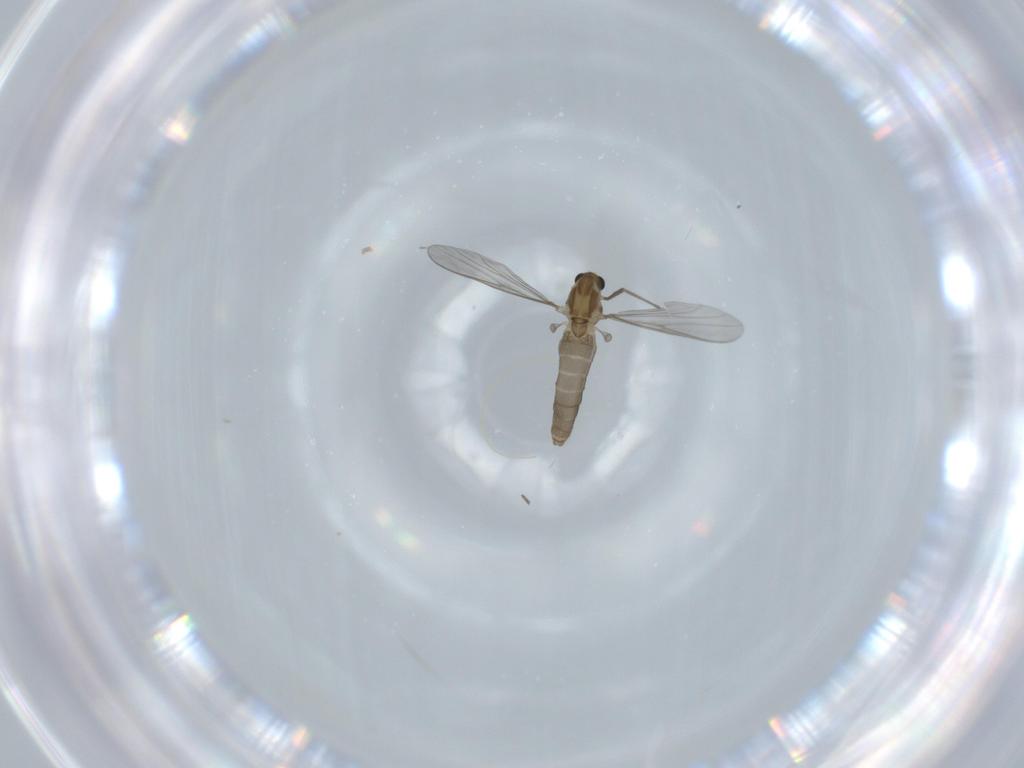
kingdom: Animalia
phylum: Arthropoda
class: Insecta
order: Diptera
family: Chironomidae
